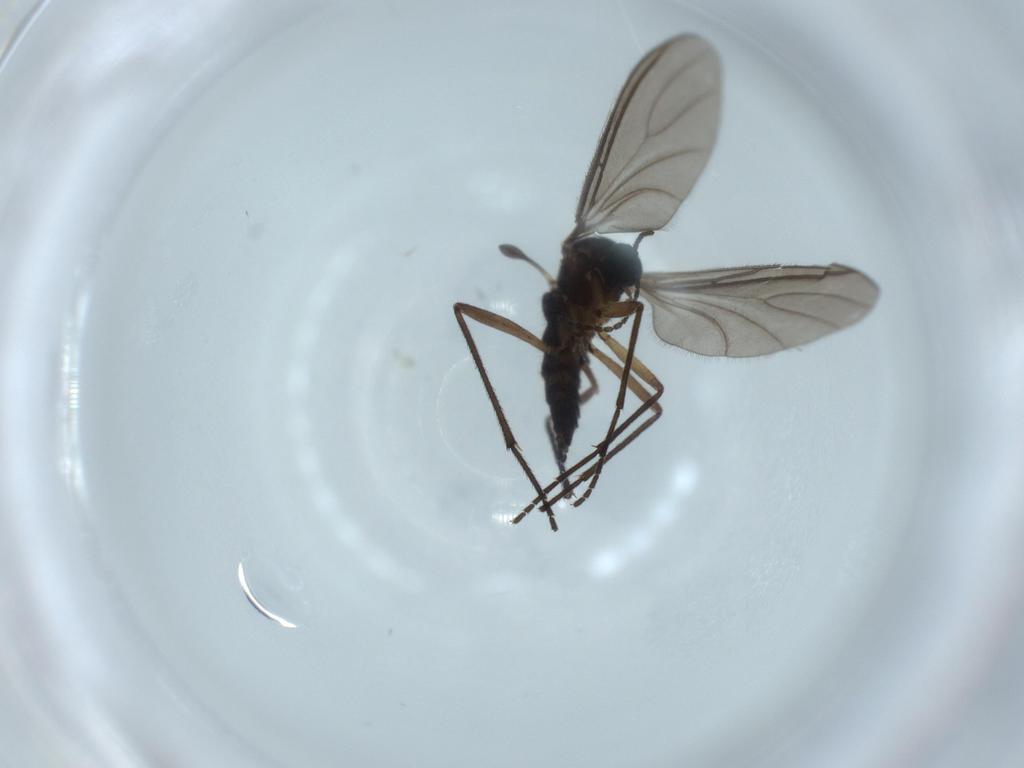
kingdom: Animalia
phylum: Arthropoda
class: Insecta
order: Diptera
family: Sciaridae
